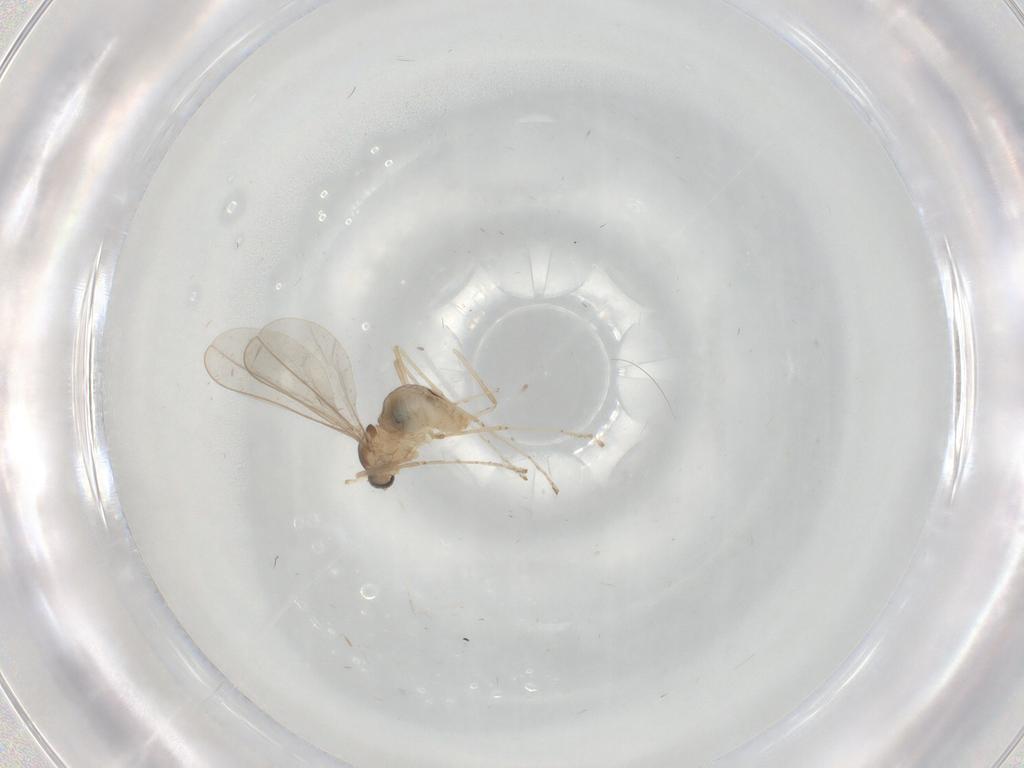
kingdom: Animalia
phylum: Arthropoda
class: Insecta
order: Diptera
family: Cecidomyiidae
